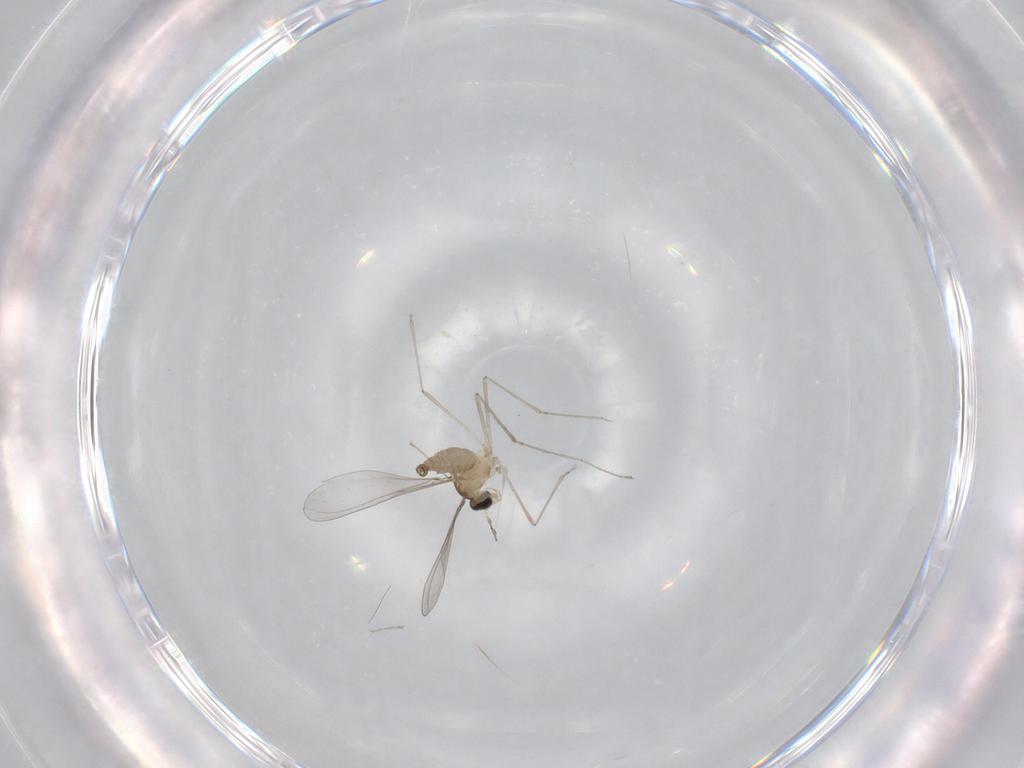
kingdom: Animalia
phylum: Arthropoda
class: Insecta
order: Diptera
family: Cecidomyiidae
